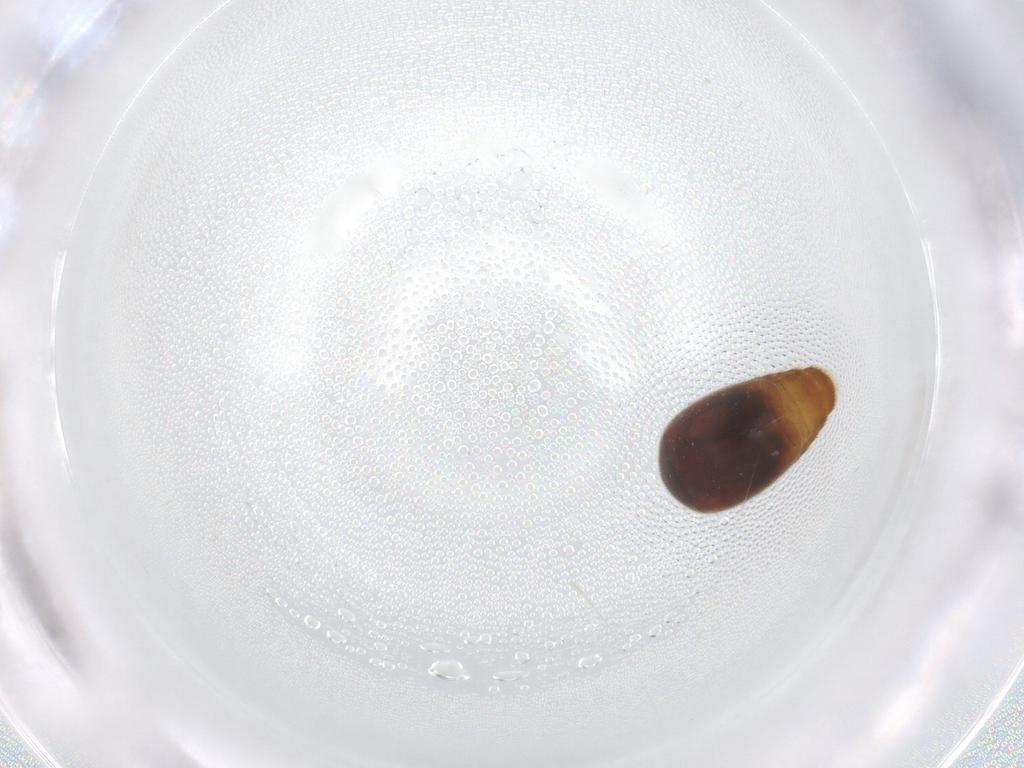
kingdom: Animalia
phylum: Arthropoda
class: Insecta
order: Coleoptera
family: Corylophidae
